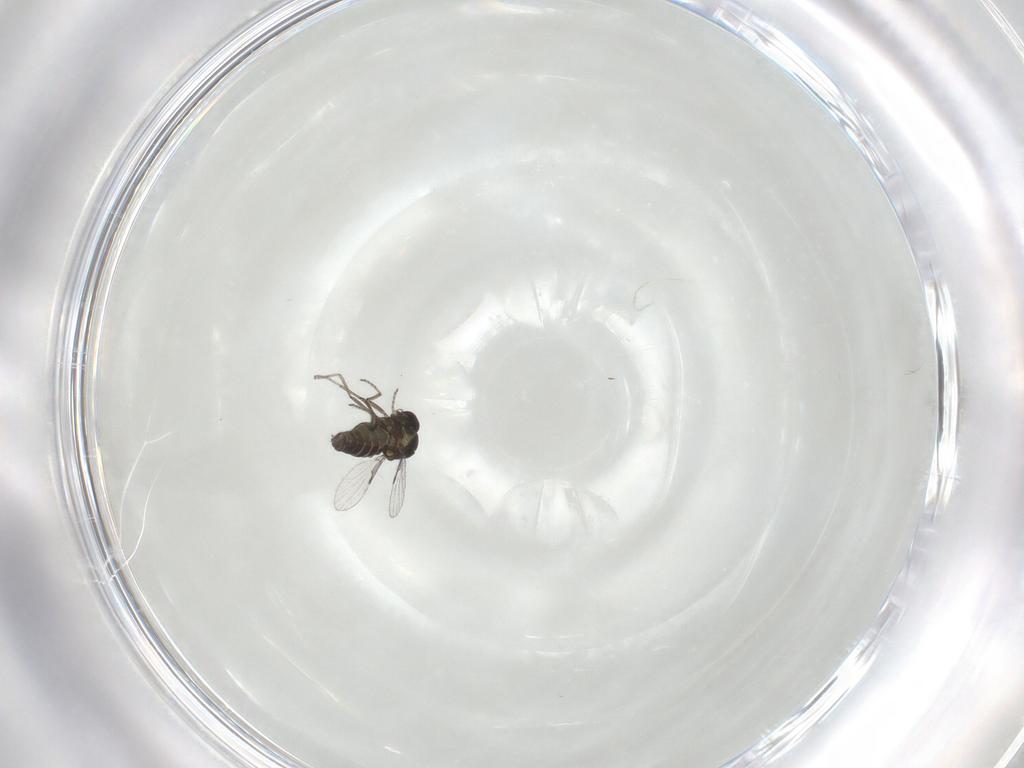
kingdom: Animalia
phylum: Arthropoda
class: Insecta
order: Diptera
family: Ceratopogonidae
